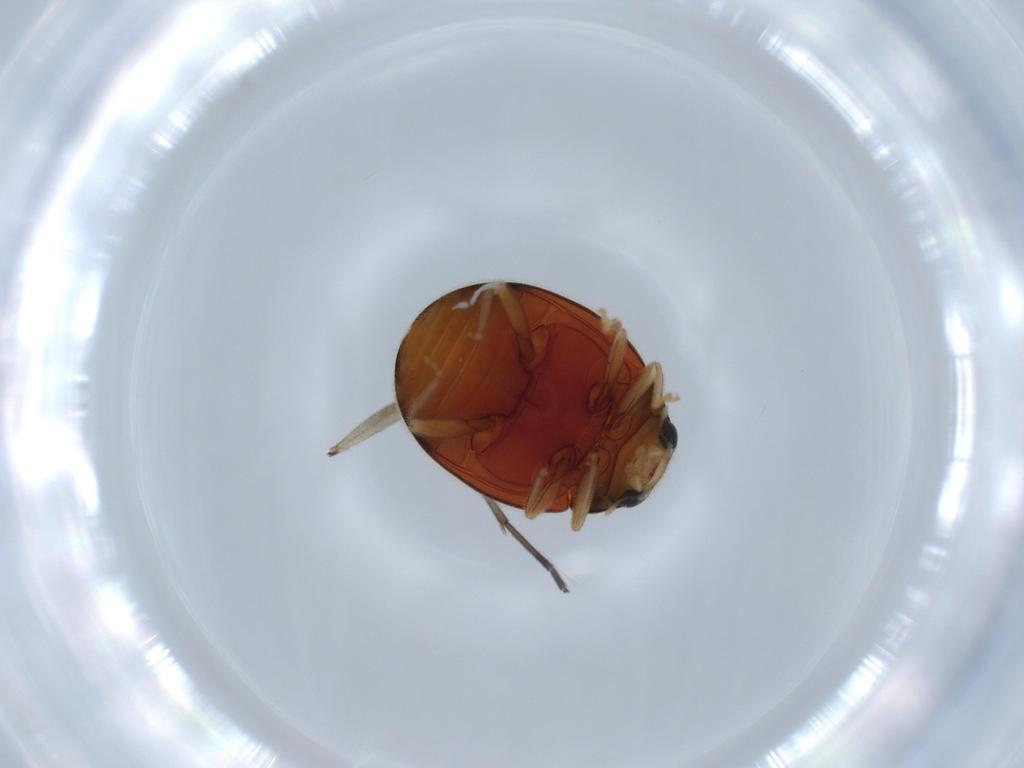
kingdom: Animalia
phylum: Arthropoda
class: Insecta
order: Coleoptera
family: Coccinellidae
